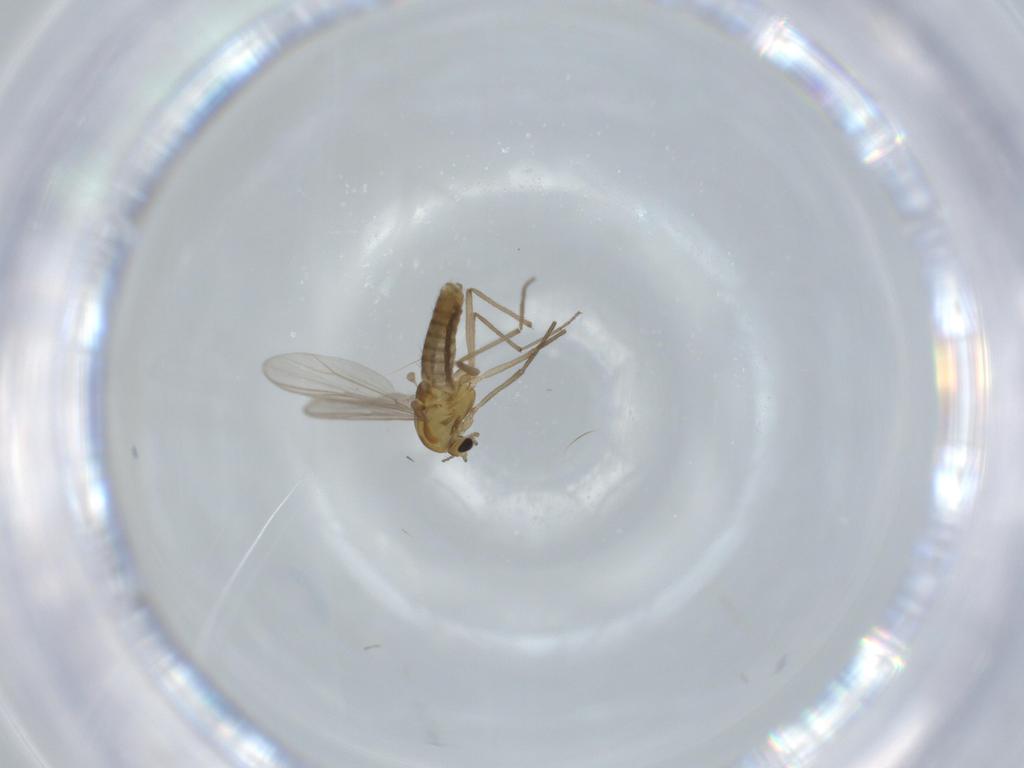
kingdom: Animalia
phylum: Arthropoda
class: Insecta
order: Diptera
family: Chironomidae
